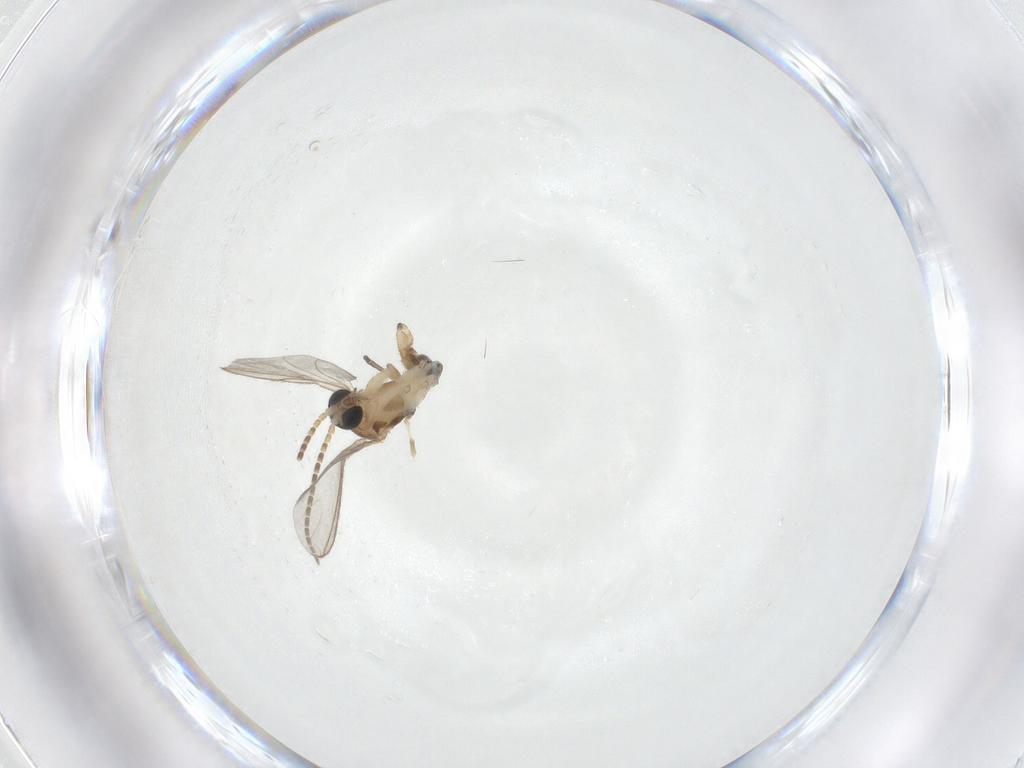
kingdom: Animalia
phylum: Arthropoda
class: Insecta
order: Diptera
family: Sciaridae
